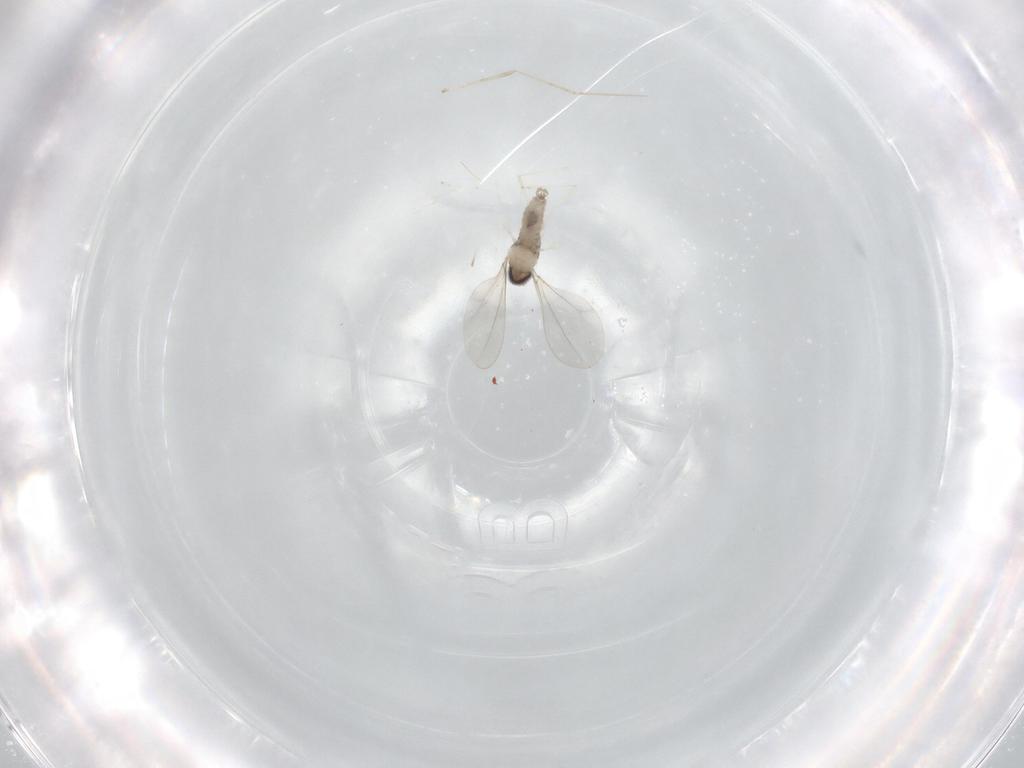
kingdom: Animalia
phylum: Arthropoda
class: Insecta
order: Diptera
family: Cecidomyiidae
